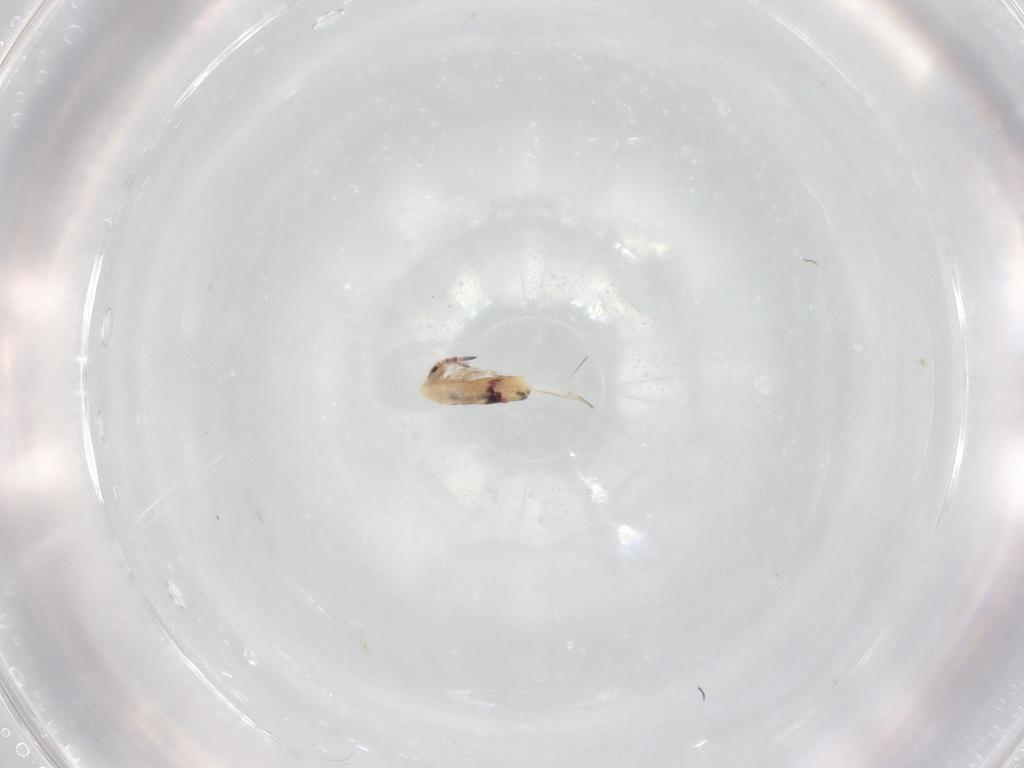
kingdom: Animalia
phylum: Arthropoda
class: Collembola
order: Entomobryomorpha
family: Entomobryidae
